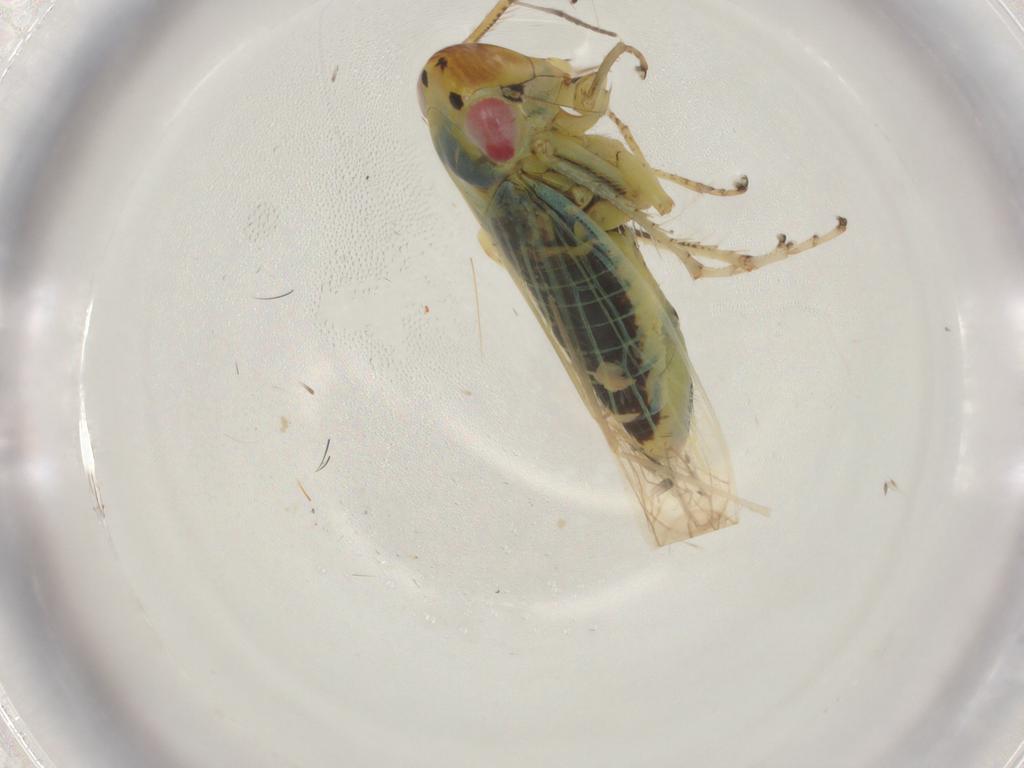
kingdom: Animalia
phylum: Arthropoda
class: Insecta
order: Hemiptera
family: Cicadellidae
